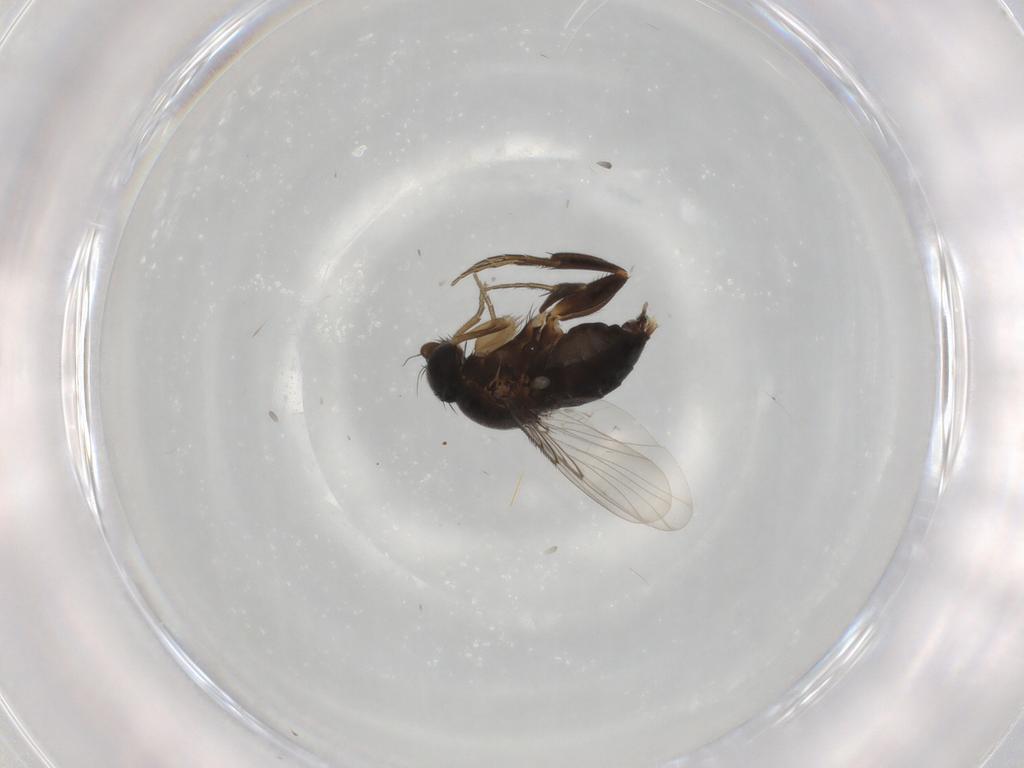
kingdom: Animalia
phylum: Arthropoda
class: Insecta
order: Diptera
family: Phoridae
